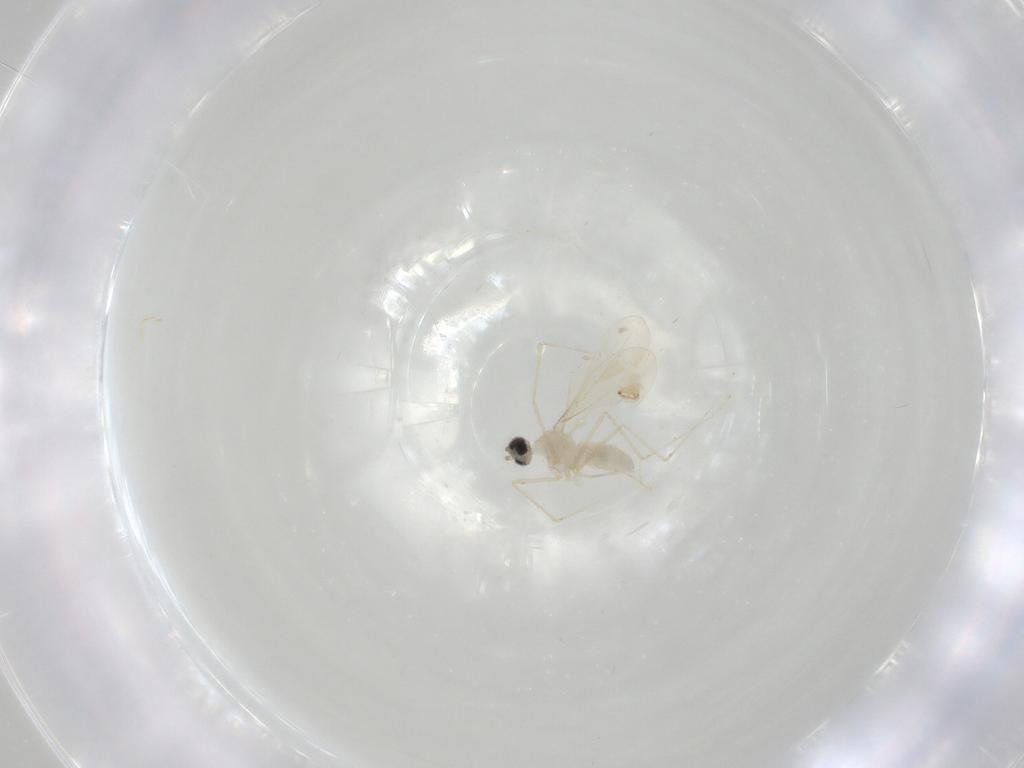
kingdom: Animalia
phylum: Arthropoda
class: Insecta
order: Diptera
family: Cecidomyiidae
